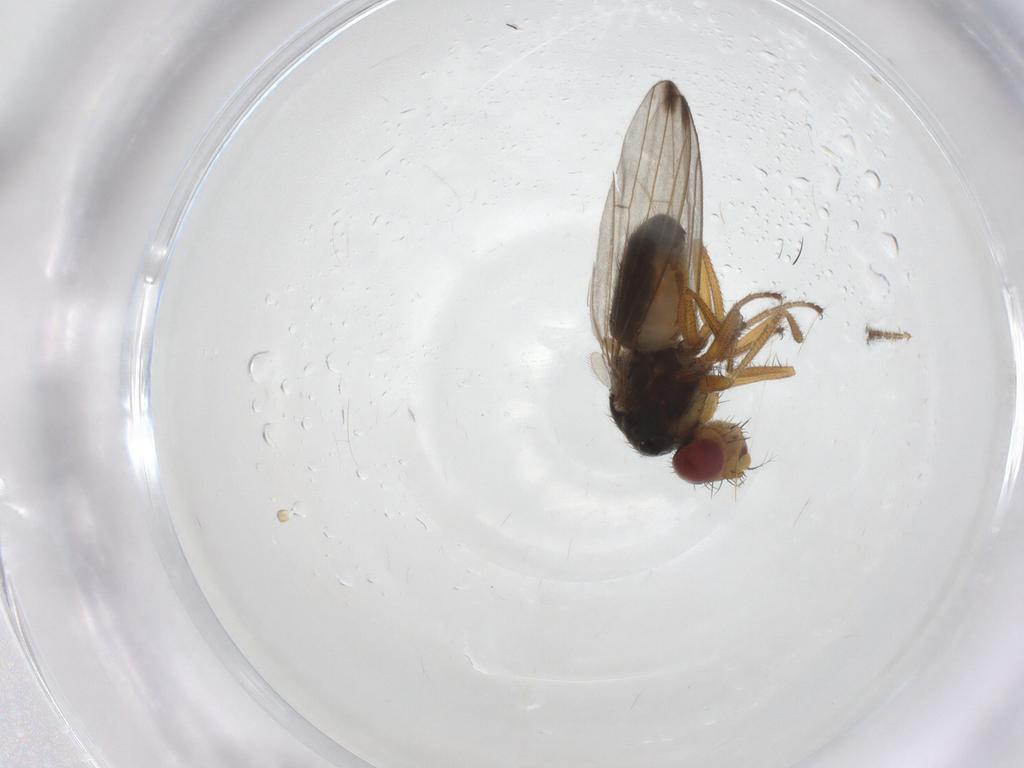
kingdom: Animalia
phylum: Arthropoda
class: Insecta
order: Diptera
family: Drosophilidae
